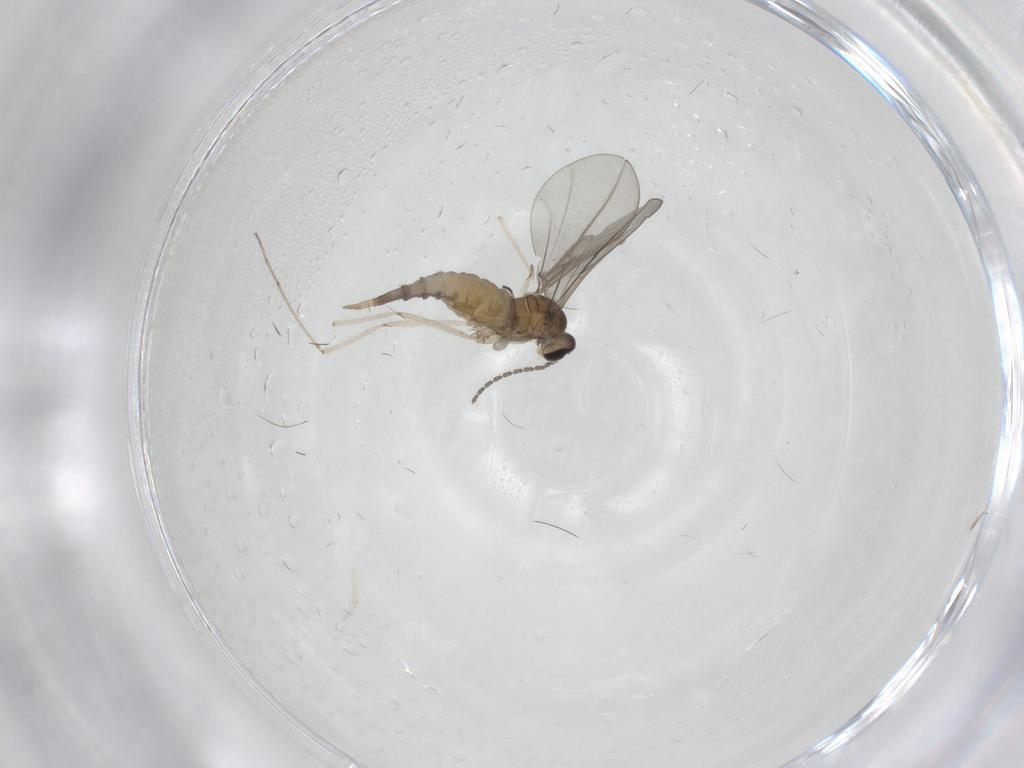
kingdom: Animalia
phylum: Arthropoda
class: Insecta
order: Diptera
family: Cecidomyiidae
